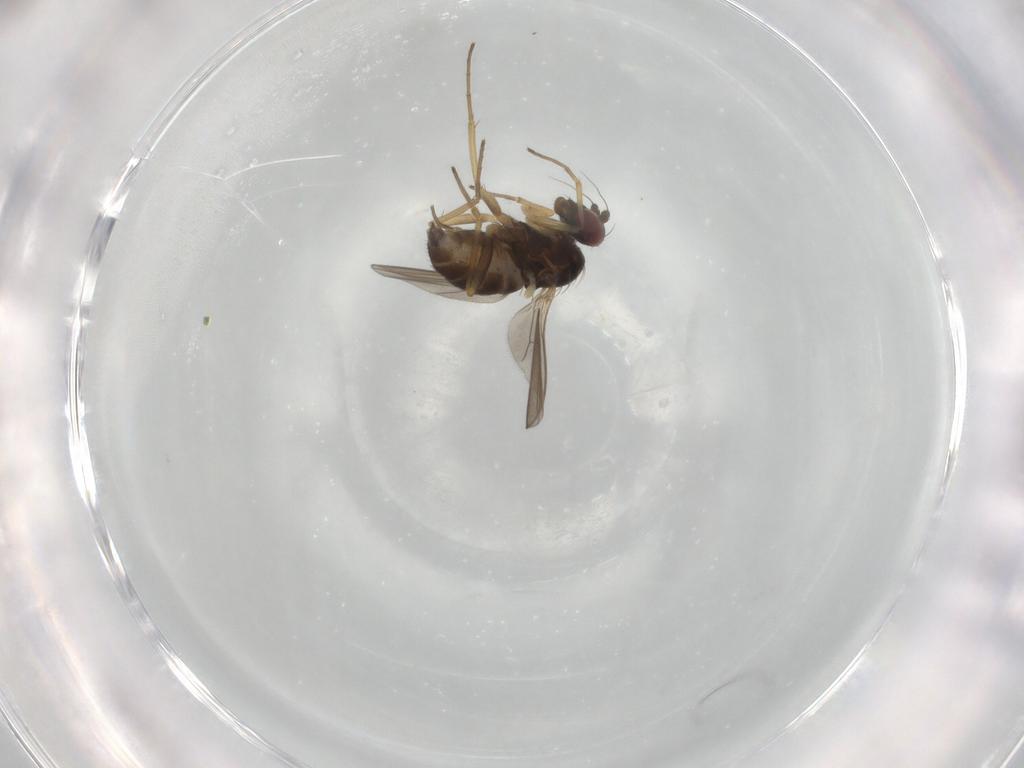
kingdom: Animalia
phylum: Arthropoda
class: Insecta
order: Diptera
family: Dolichopodidae
